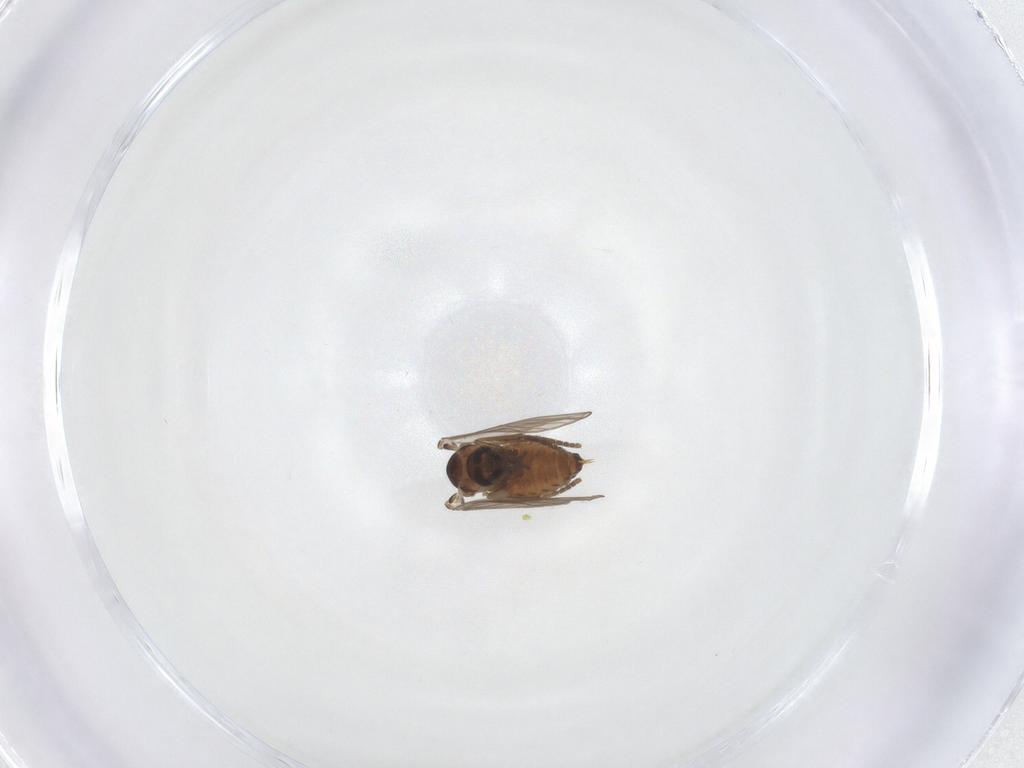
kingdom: Animalia
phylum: Arthropoda
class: Insecta
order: Diptera
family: Psychodidae
